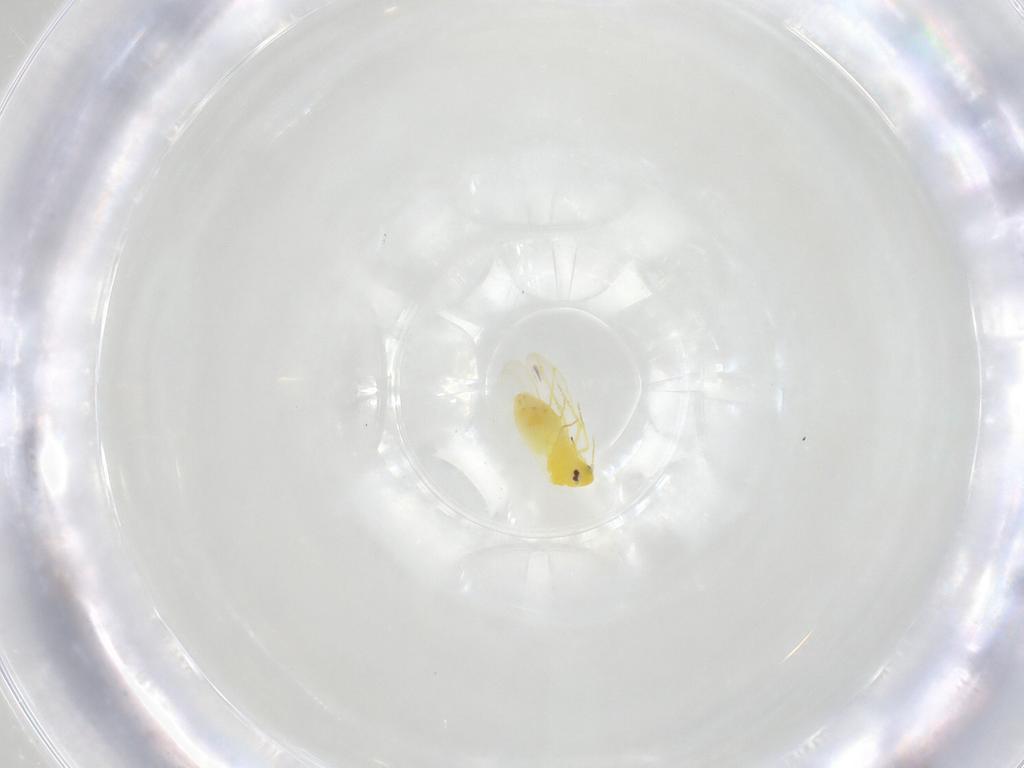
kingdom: Animalia
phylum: Arthropoda
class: Insecta
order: Hemiptera
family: Aleyrodidae
